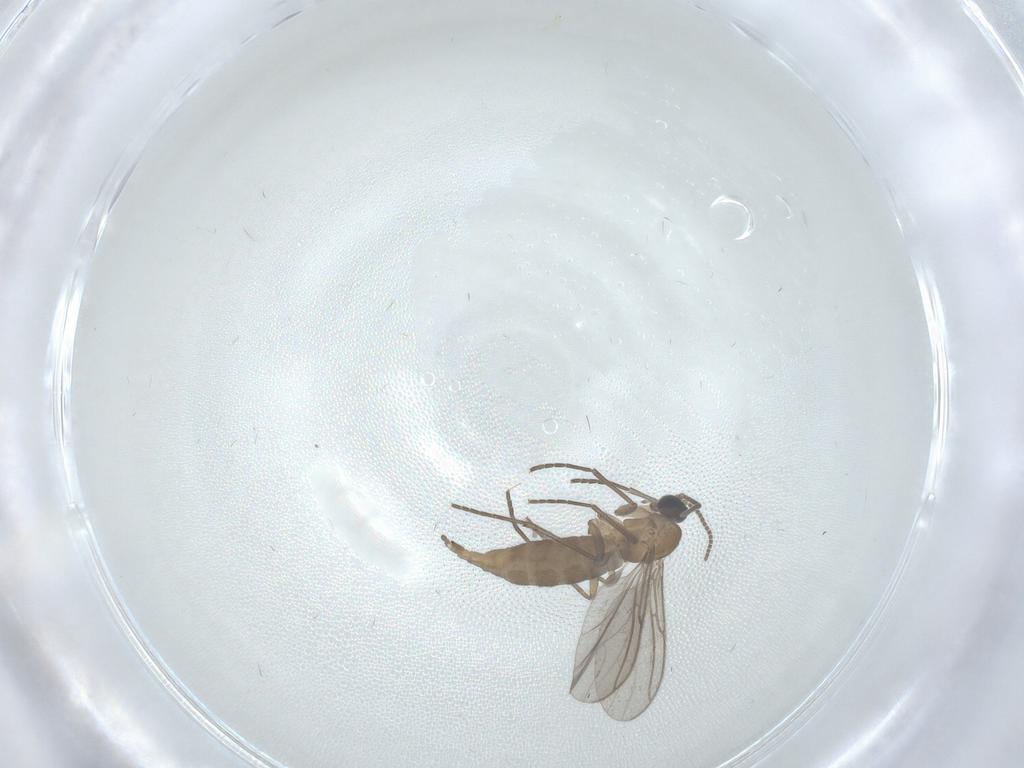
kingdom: Animalia
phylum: Arthropoda
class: Insecta
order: Diptera
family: Sciaridae
